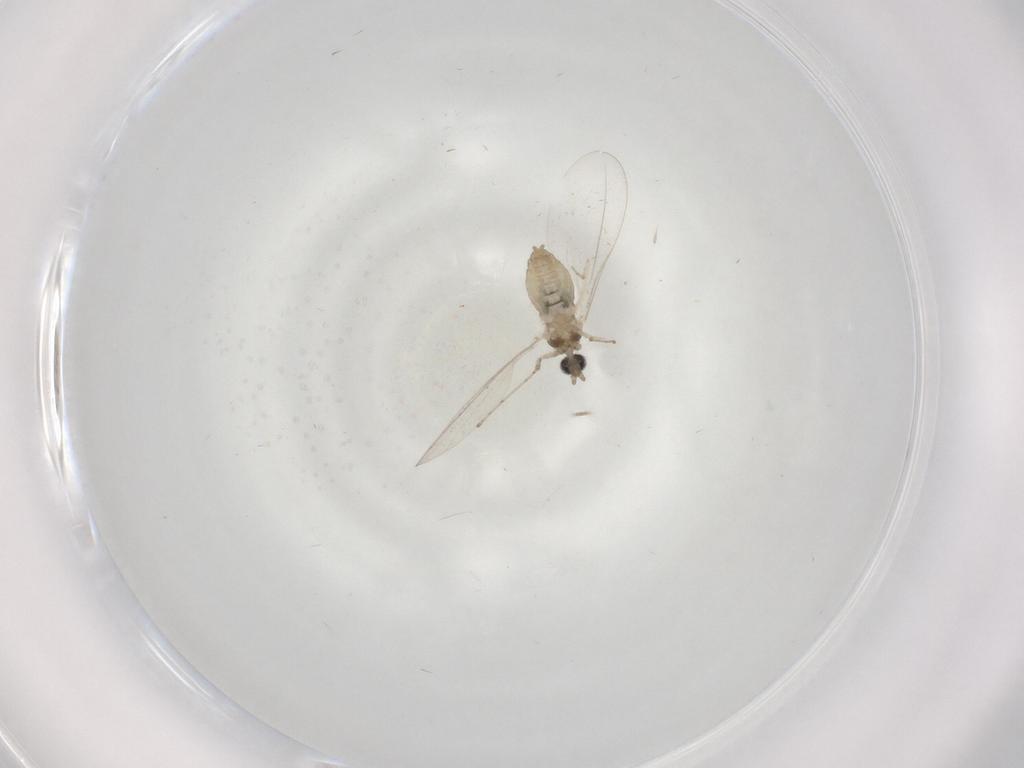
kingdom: Animalia
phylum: Arthropoda
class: Insecta
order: Diptera
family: Cecidomyiidae
